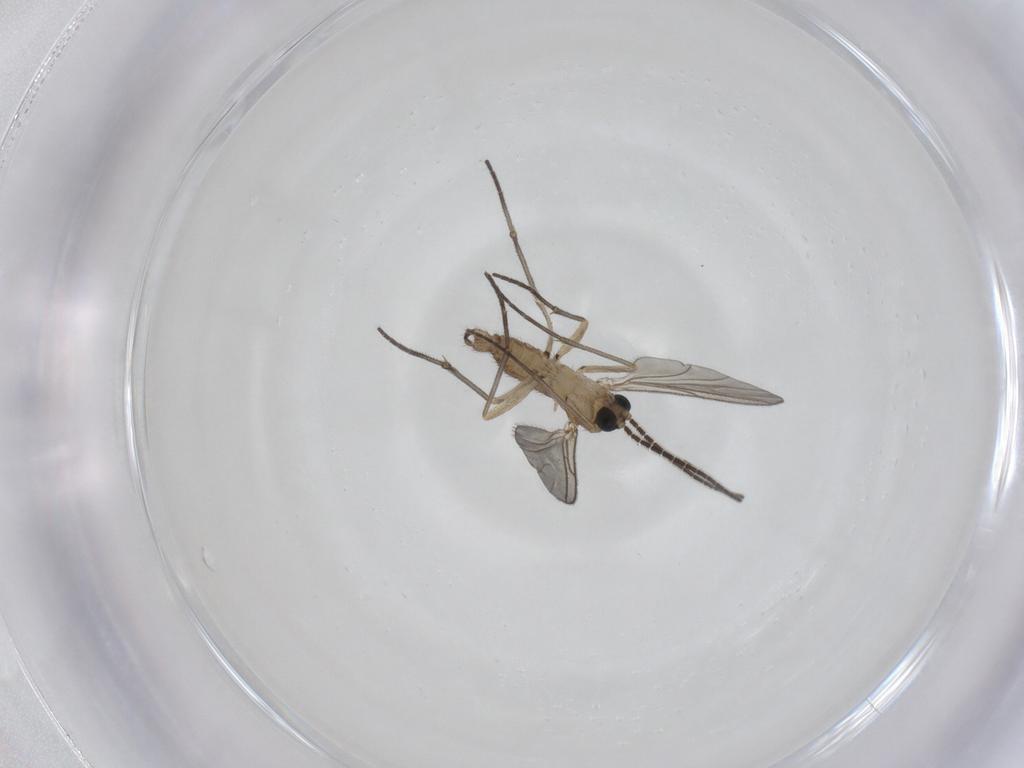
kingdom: Animalia
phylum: Arthropoda
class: Insecta
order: Diptera
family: Sciaridae
